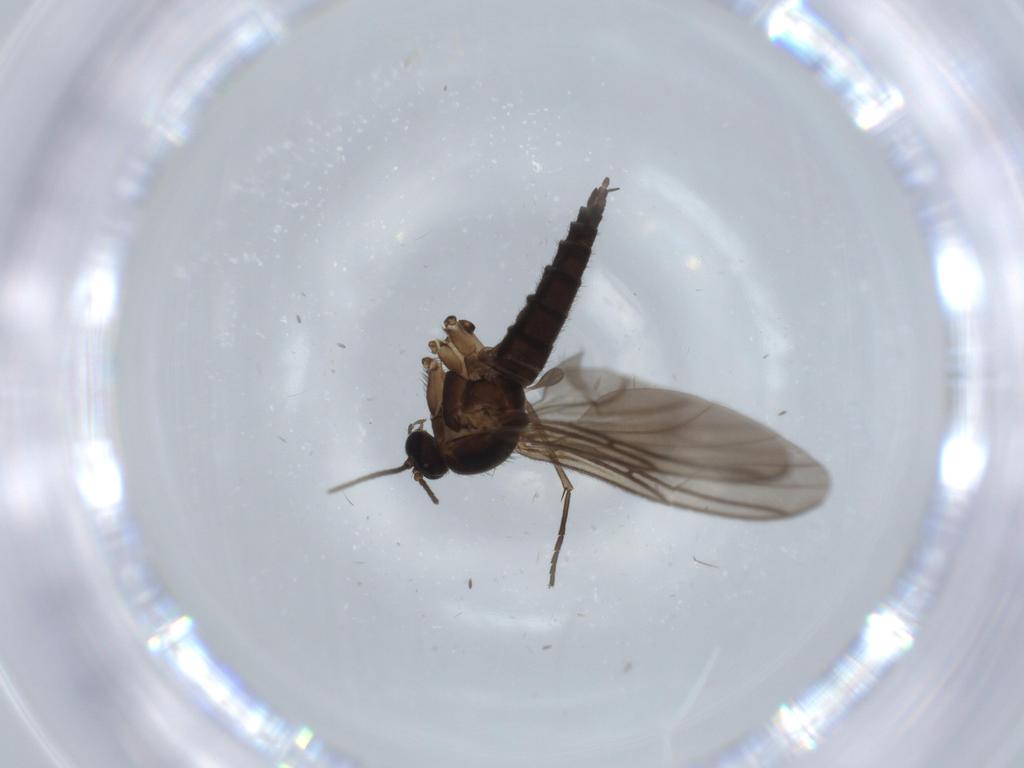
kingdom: Animalia
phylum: Arthropoda
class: Insecta
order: Diptera
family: Sciaridae
